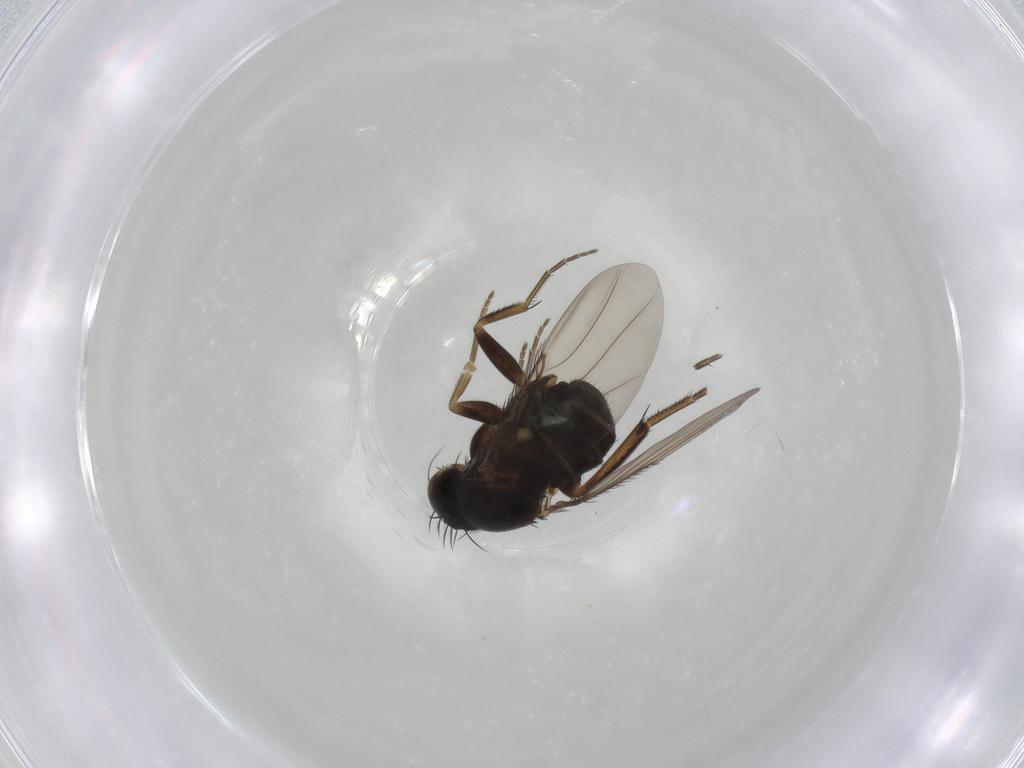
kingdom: Animalia
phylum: Arthropoda
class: Insecta
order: Diptera
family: Phoridae
